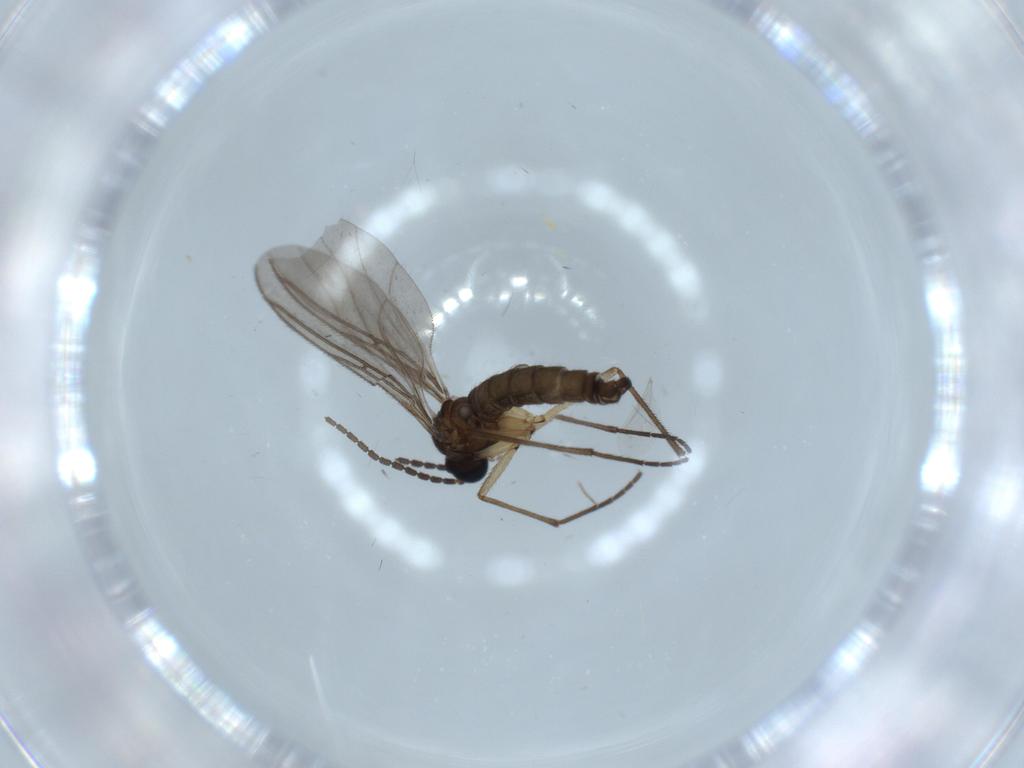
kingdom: Animalia
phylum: Arthropoda
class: Insecta
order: Diptera
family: Sciaridae
